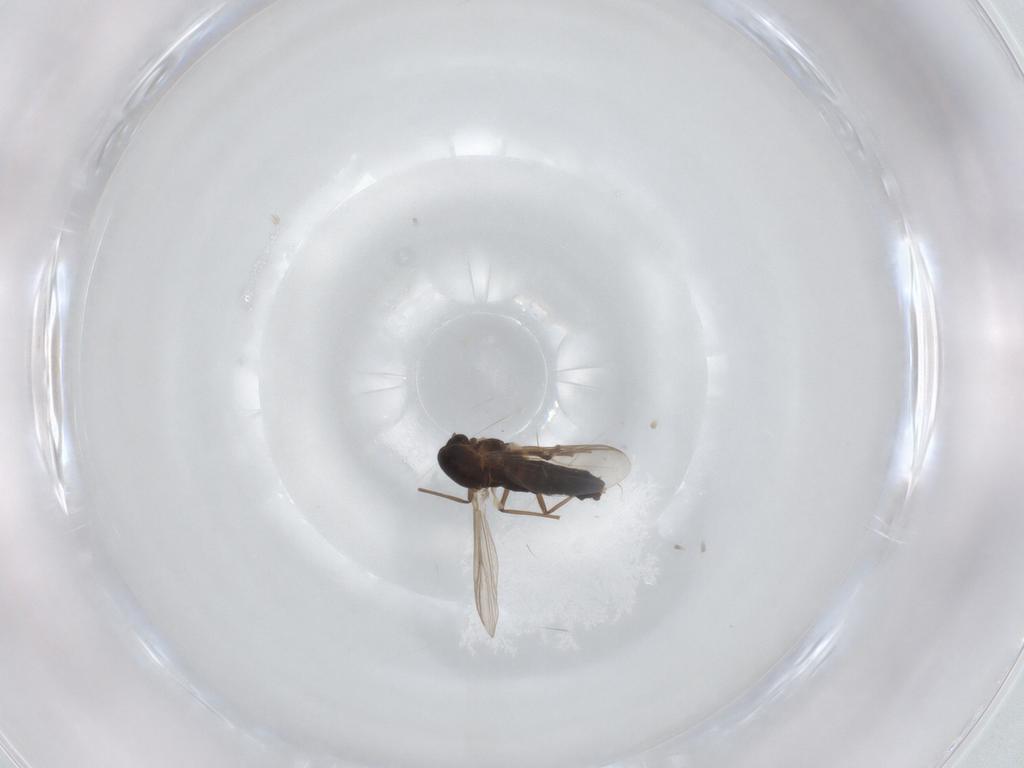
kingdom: Animalia
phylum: Arthropoda
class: Insecta
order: Diptera
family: Chironomidae
